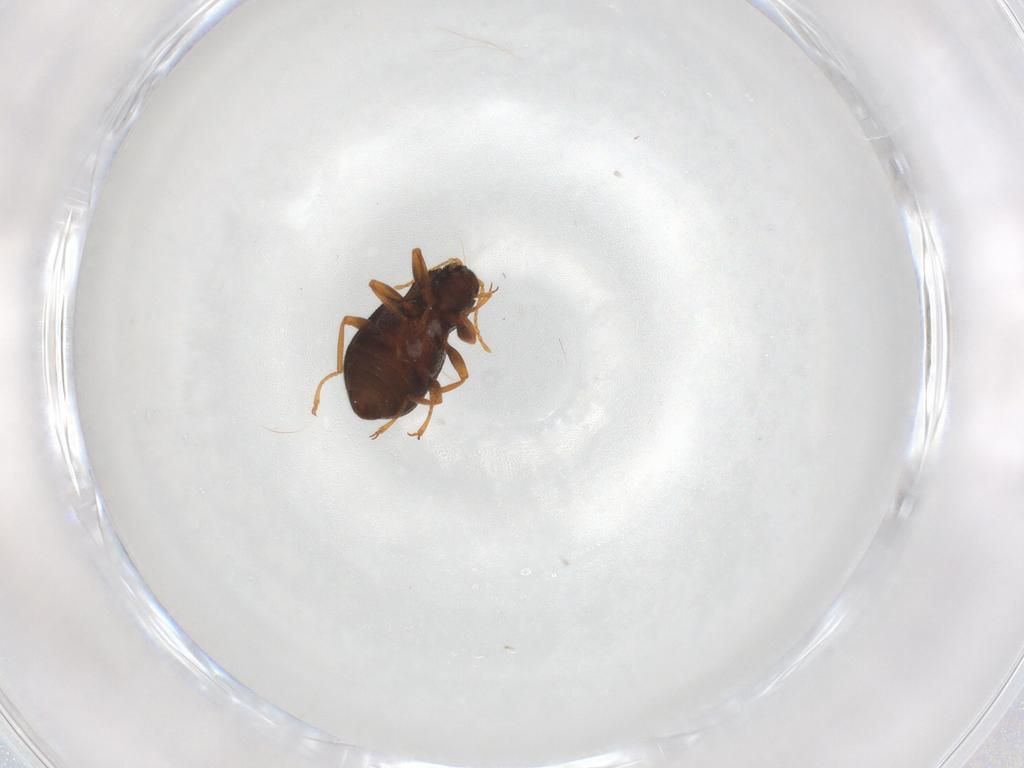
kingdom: Animalia
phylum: Arthropoda
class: Insecta
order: Coleoptera
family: Elmidae
